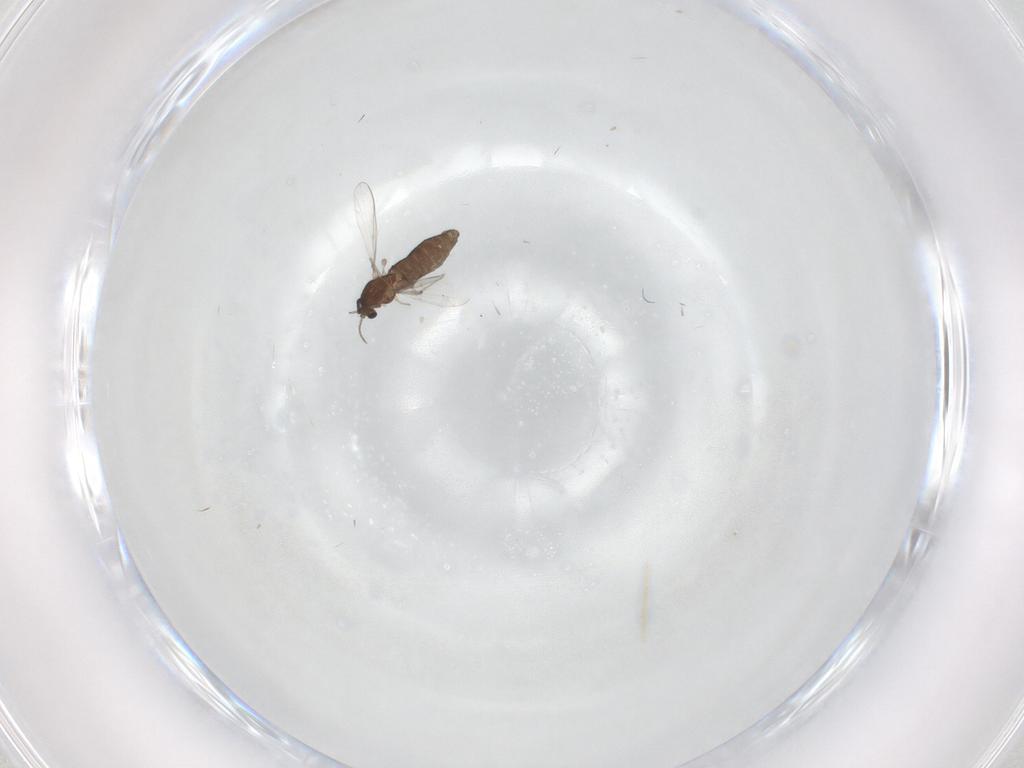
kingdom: Animalia
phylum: Arthropoda
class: Insecta
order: Diptera
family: Chironomidae
